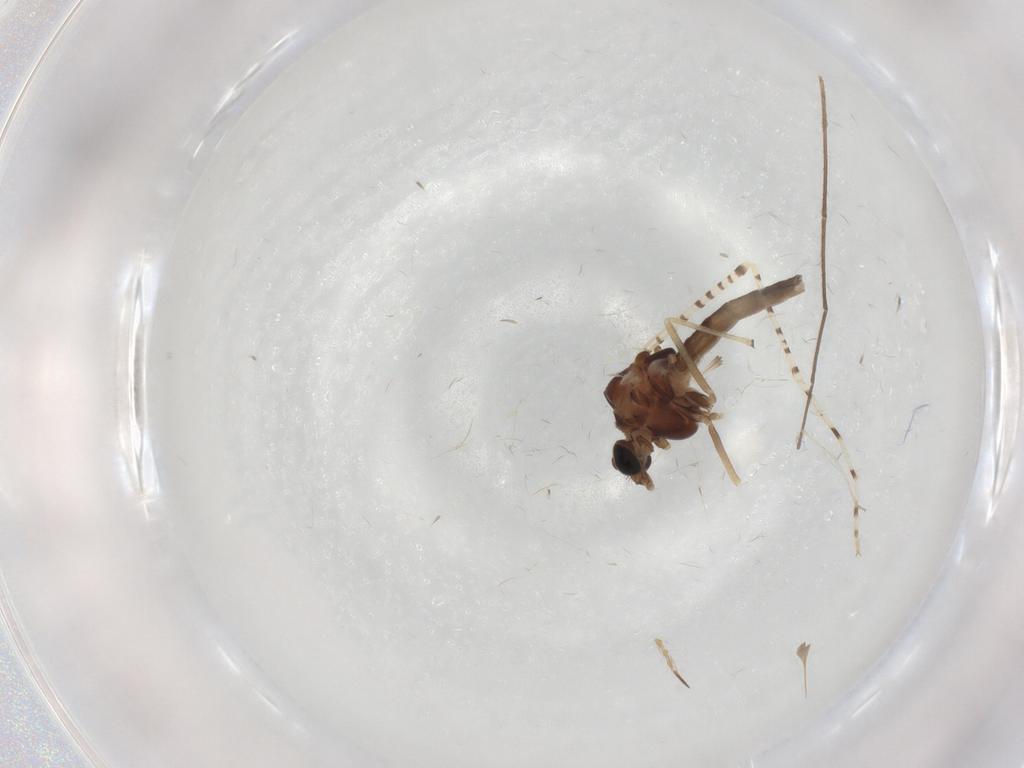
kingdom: Animalia
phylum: Arthropoda
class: Insecta
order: Diptera
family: Chironomidae
